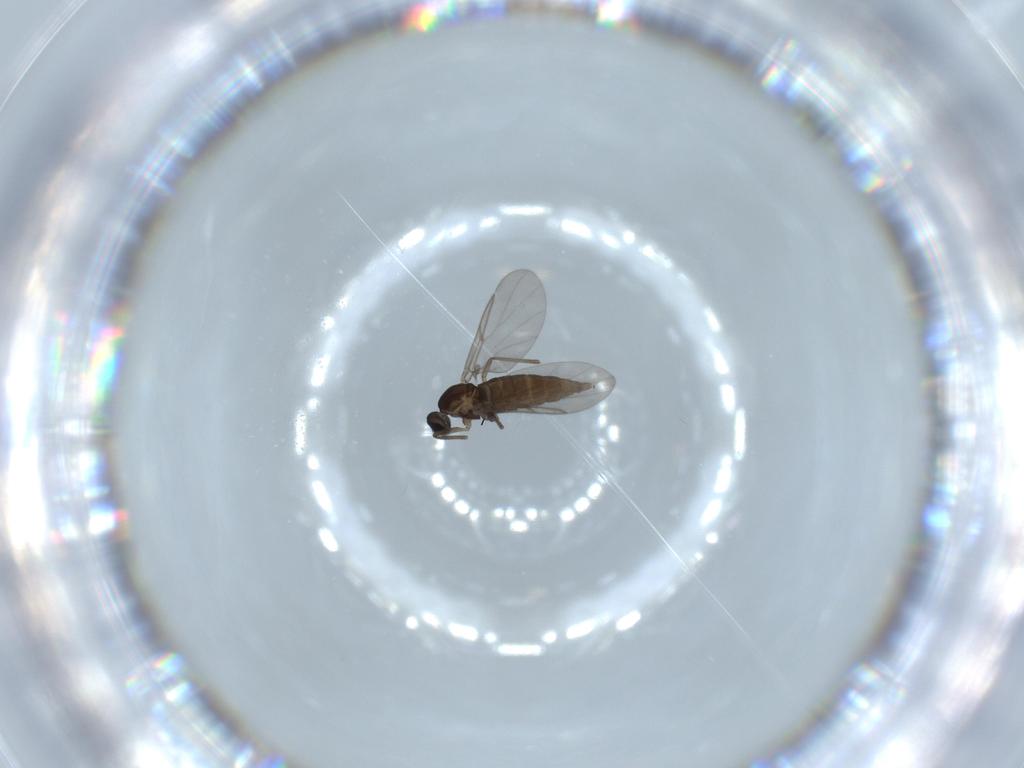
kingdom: Animalia
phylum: Arthropoda
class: Insecta
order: Diptera
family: Cecidomyiidae
